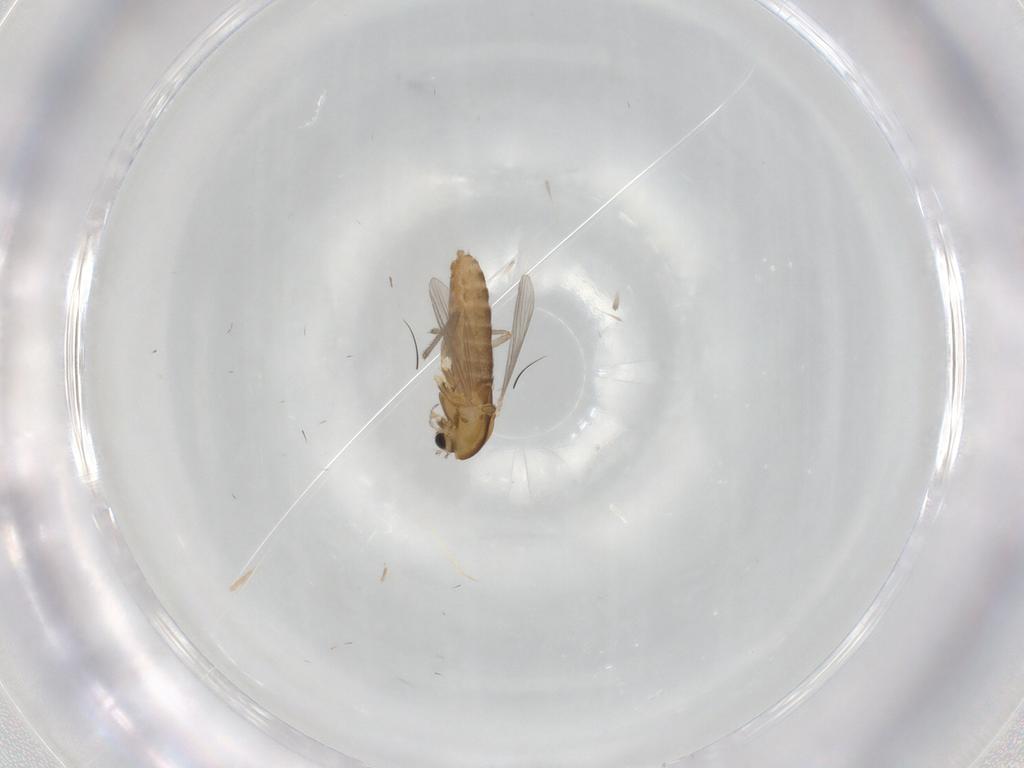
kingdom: Animalia
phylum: Arthropoda
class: Insecta
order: Diptera
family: Chironomidae
